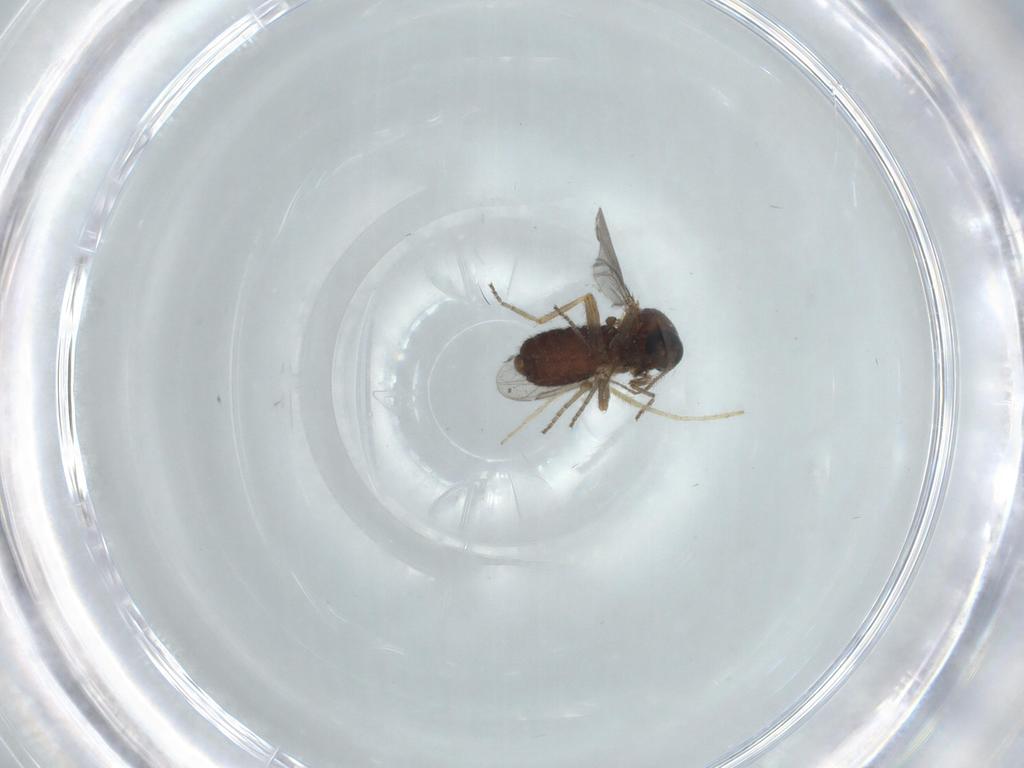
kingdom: Animalia
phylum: Arthropoda
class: Insecta
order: Diptera
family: Ceratopogonidae
